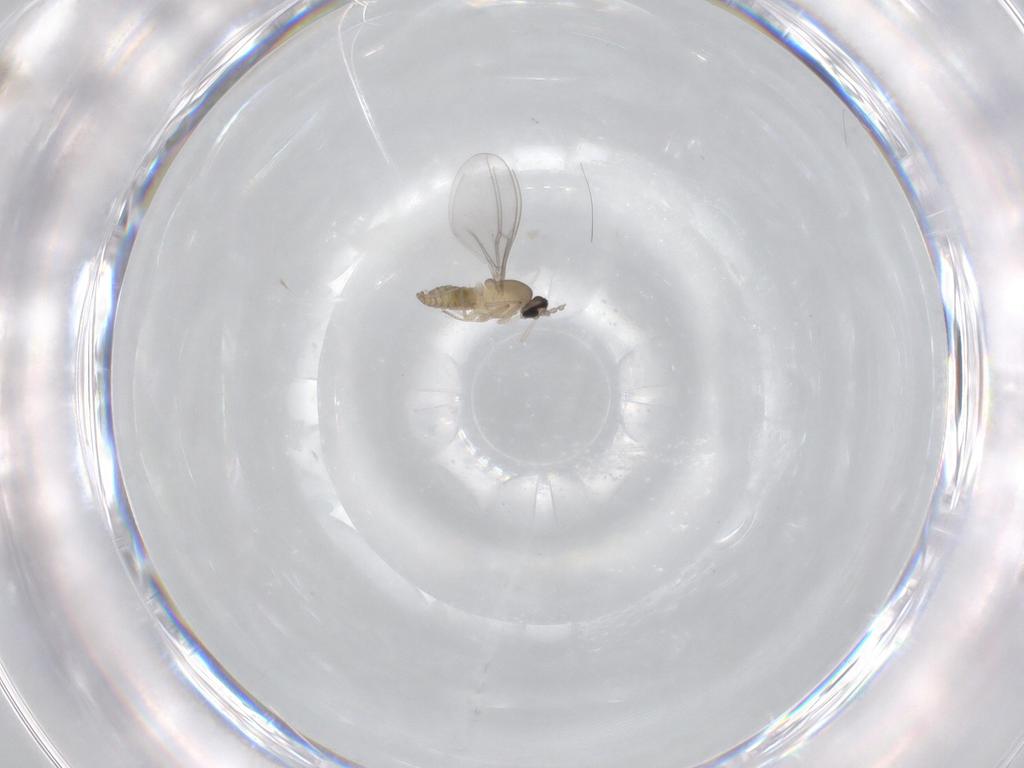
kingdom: Animalia
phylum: Arthropoda
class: Insecta
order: Diptera
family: Cecidomyiidae
